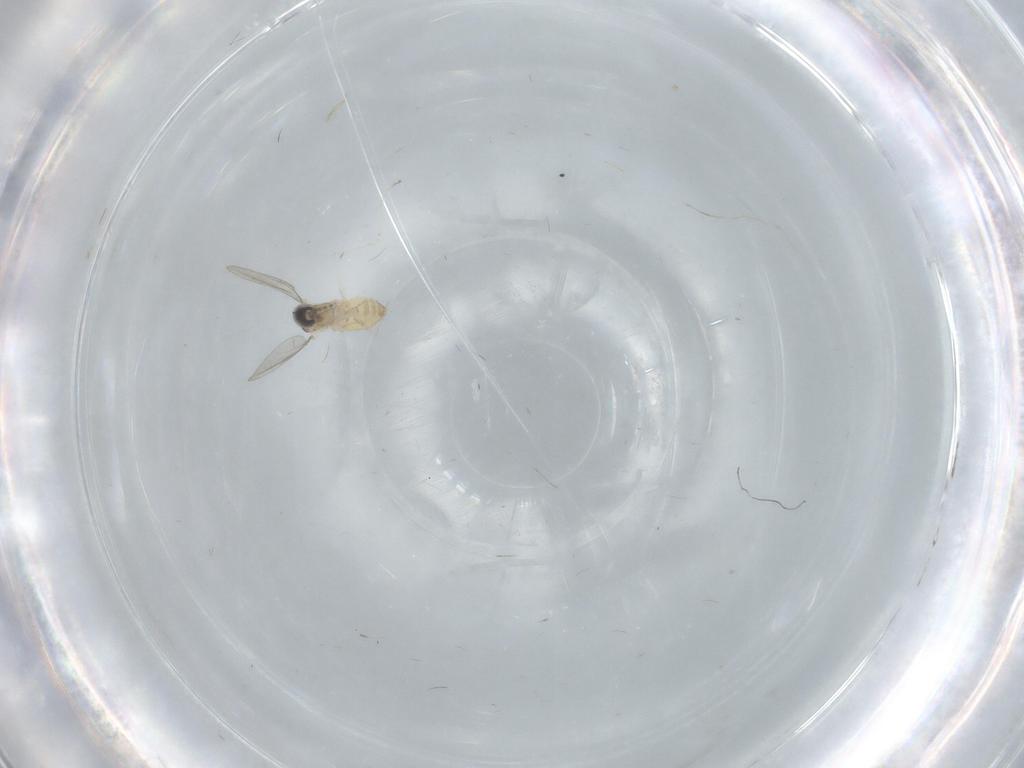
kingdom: Animalia
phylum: Arthropoda
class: Insecta
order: Diptera
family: Cecidomyiidae
